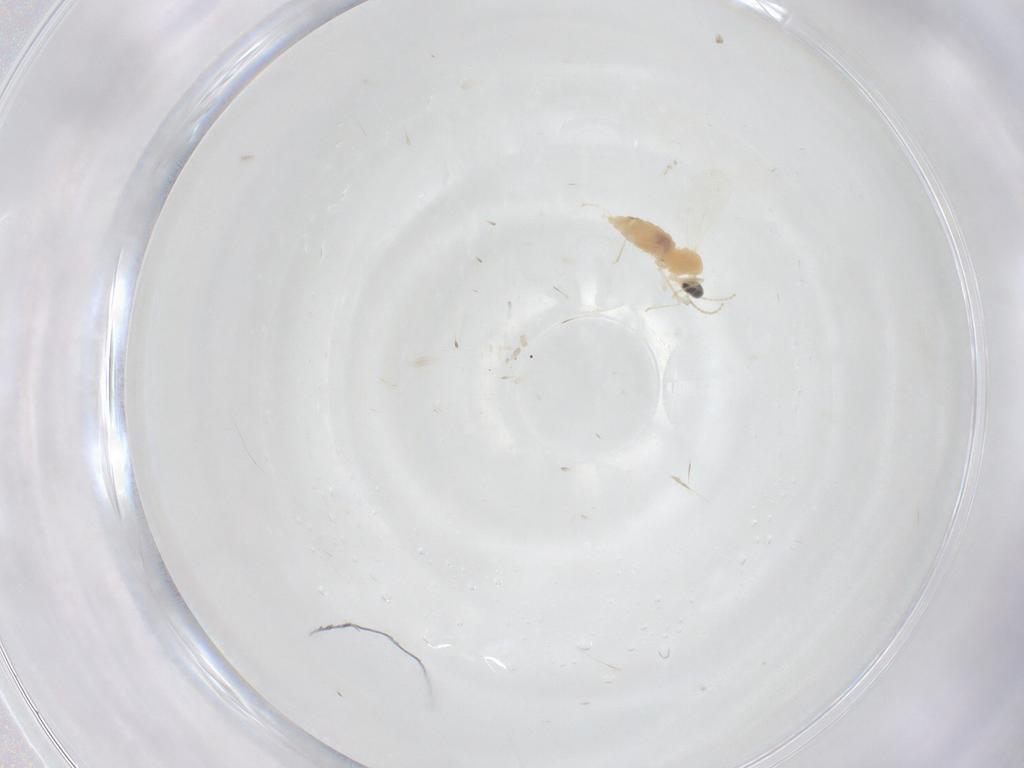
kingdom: Animalia
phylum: Arthropoda
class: Insecta
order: Diptera
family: Cecidomyiidae
